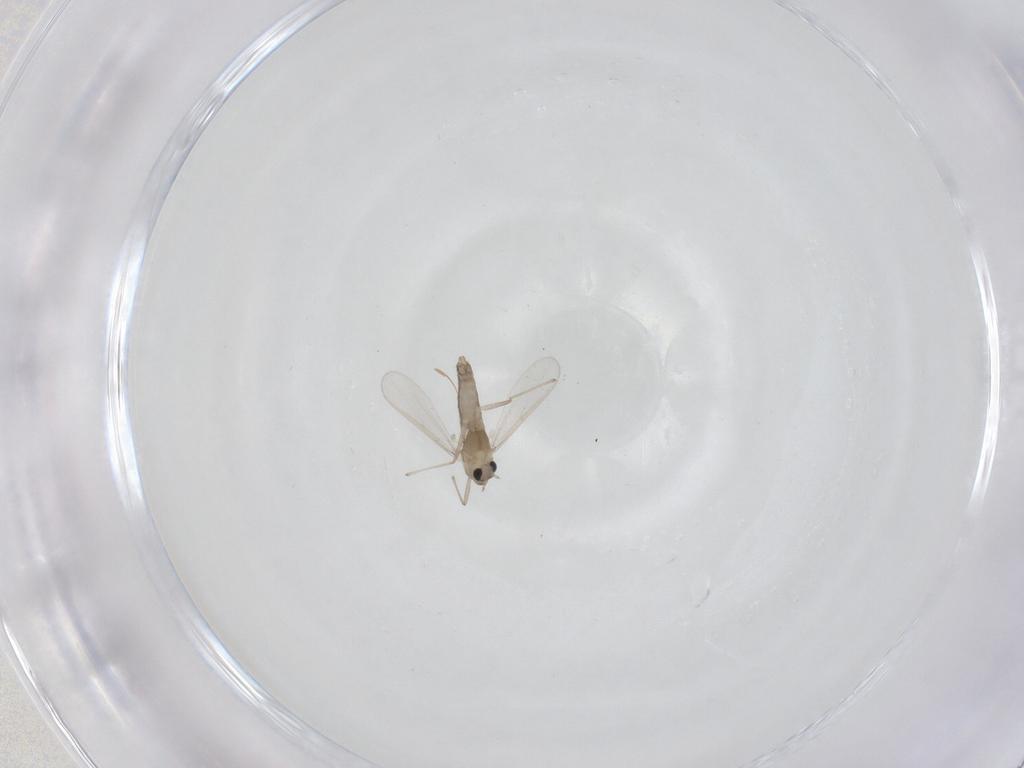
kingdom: Animalia
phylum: Arthropoda
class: Insecta
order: Diptera
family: Chironomidae
